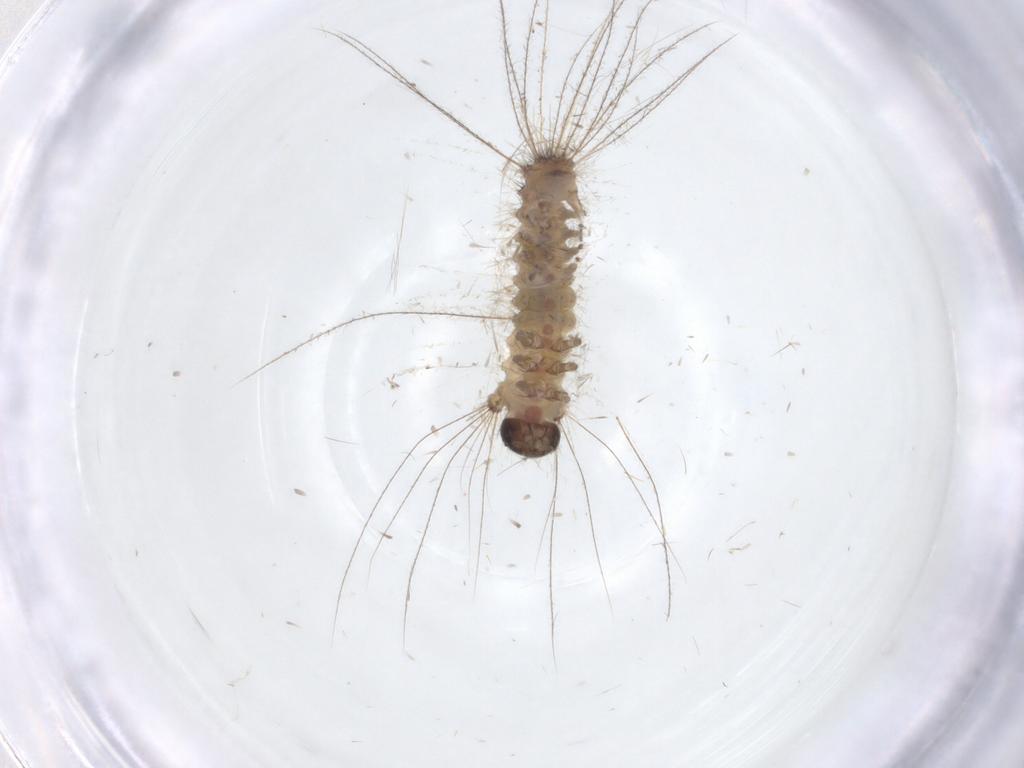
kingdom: Animalia
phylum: Arthropoda
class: Insecta
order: Lepidoptera
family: Erebidae
